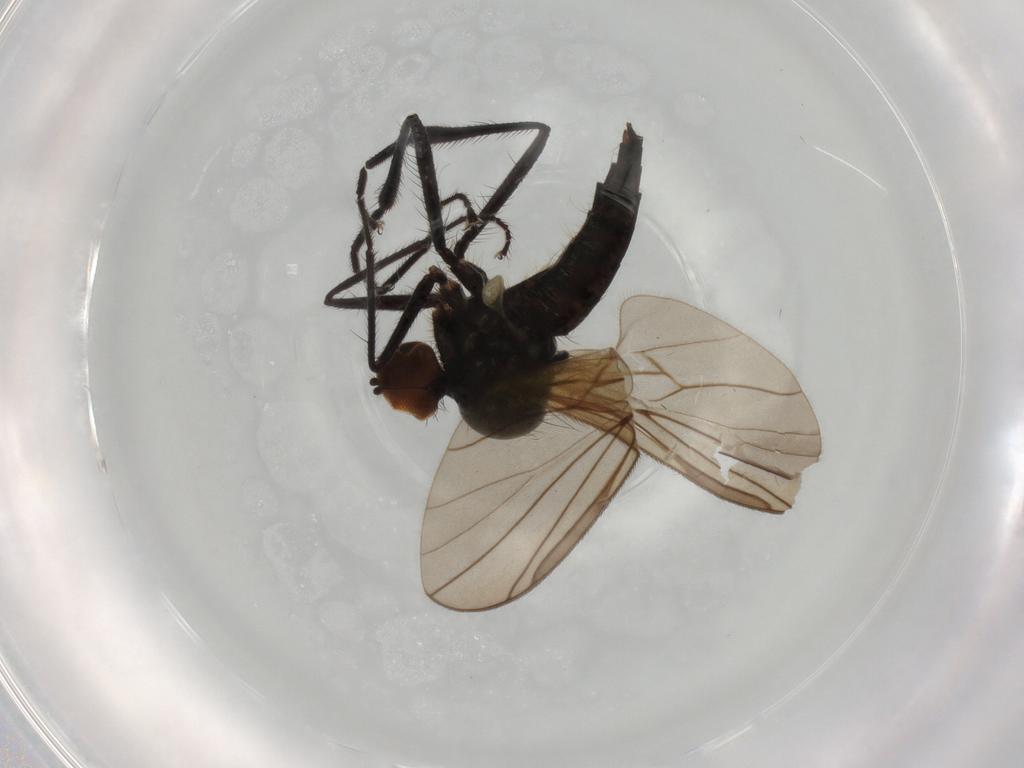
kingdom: Animalia
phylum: Arthropoda
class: Insecta
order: Diptera
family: Hybotidae
